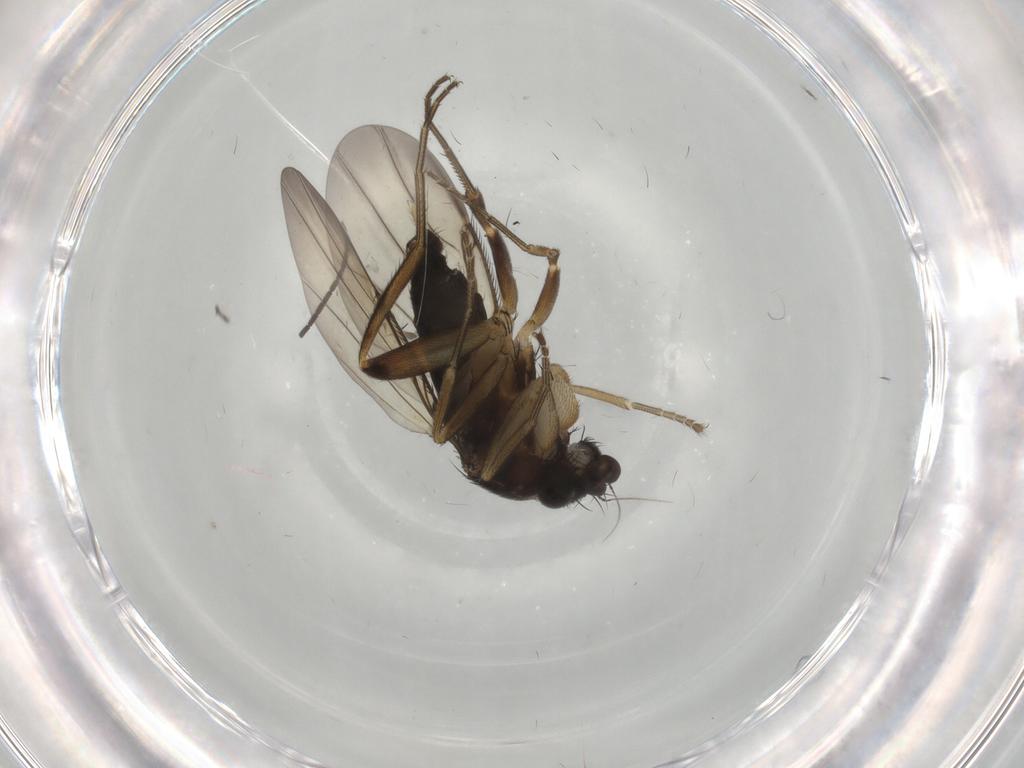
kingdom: Animalia
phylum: Arthropoda
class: Insecta
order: Diptera
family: Phoridae
